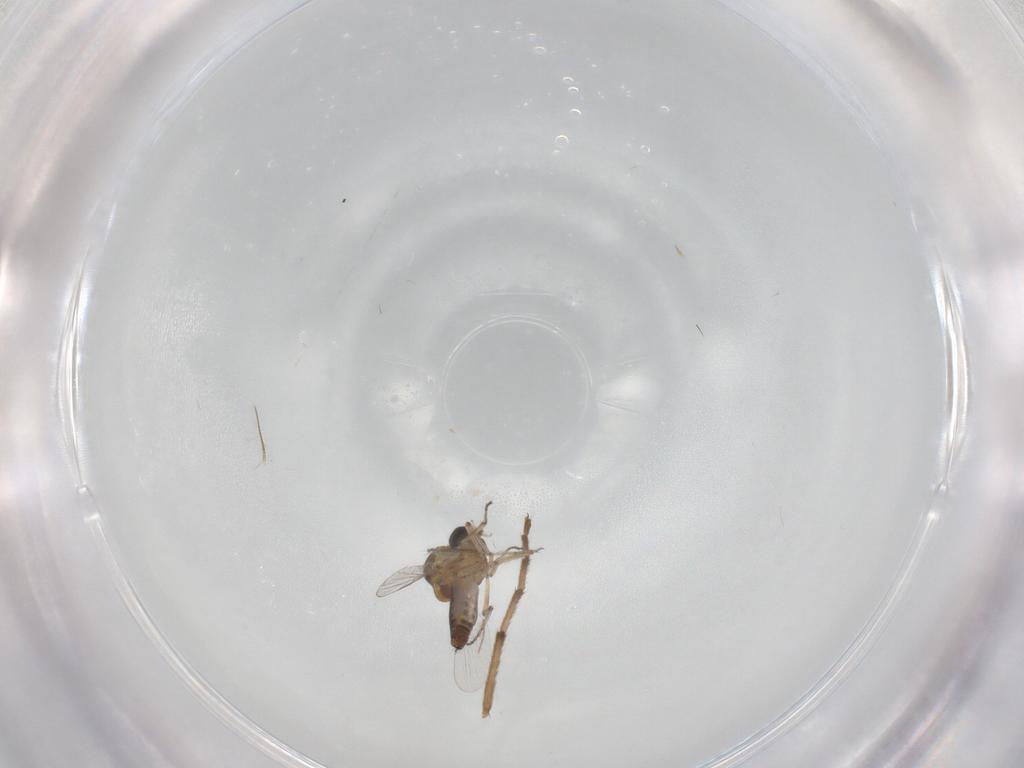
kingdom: Animalia
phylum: Arthropoda
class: Insecta
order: Diptera
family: Ceratopogonidae
